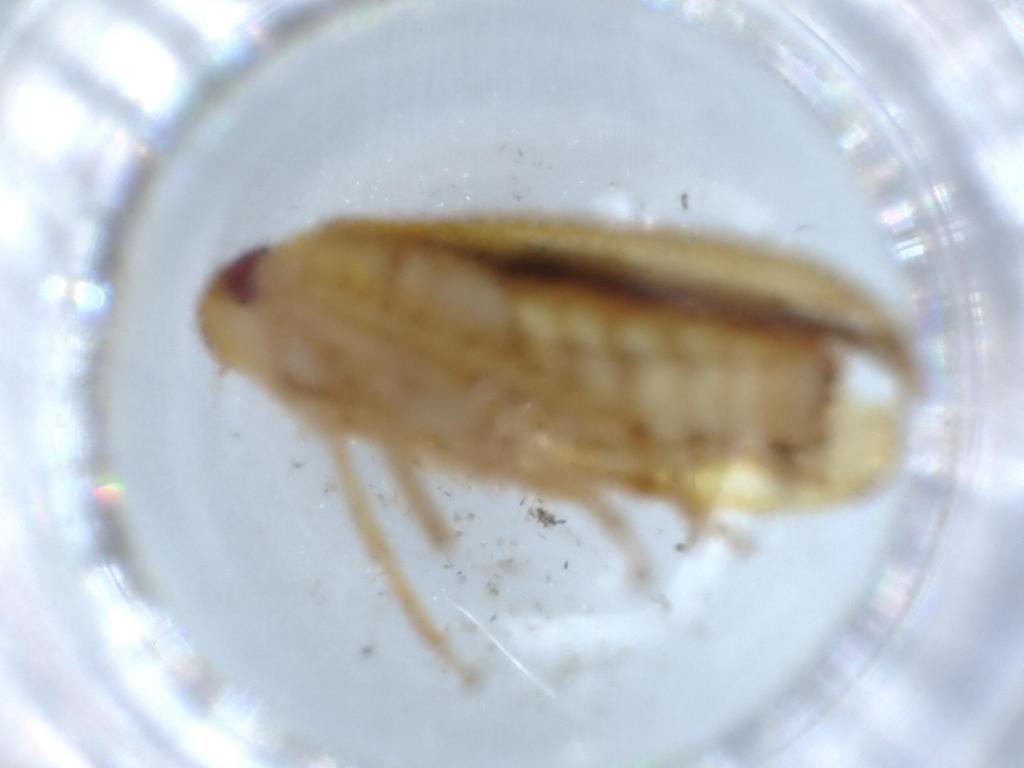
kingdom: Animalia
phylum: Arthropoda
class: Insecta
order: Hemiptera
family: Cicadellidae
